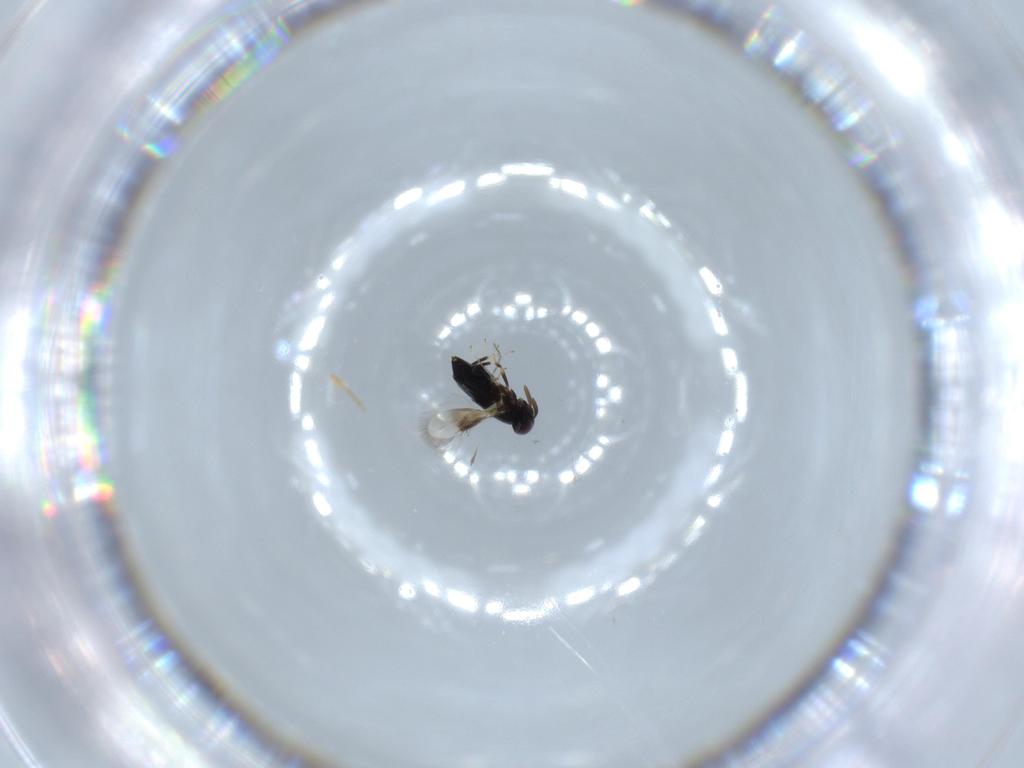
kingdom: Animalia
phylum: Arthropoda
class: Insecta
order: Hymenoptera
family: Signiphoridae
